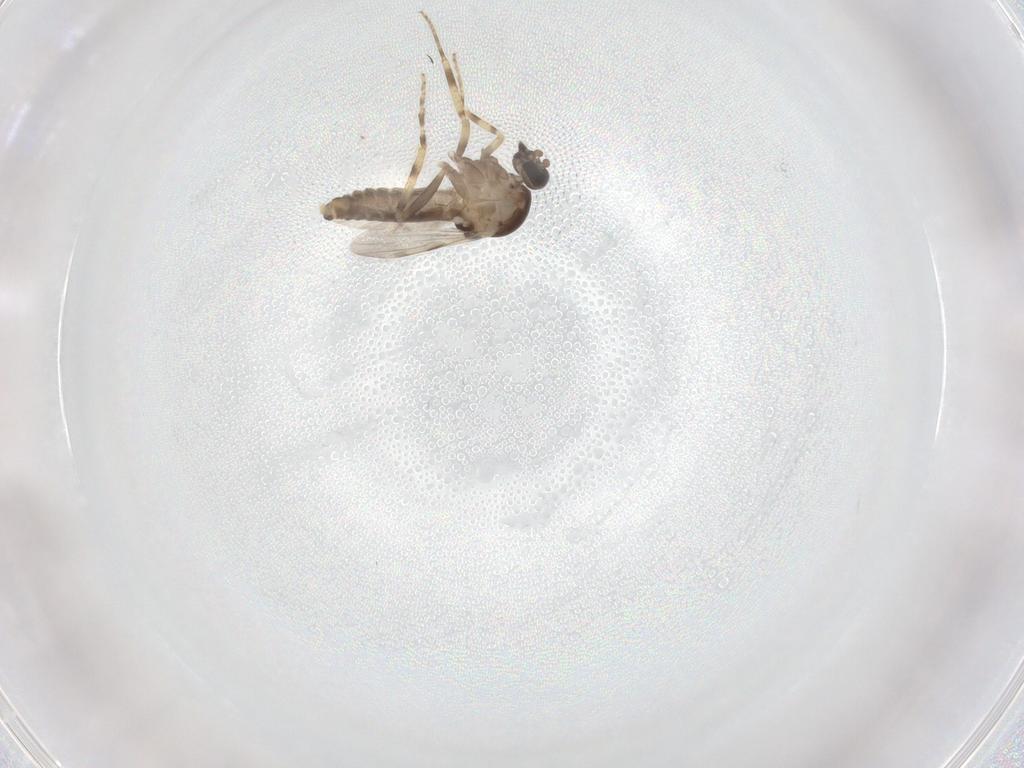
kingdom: Animalia
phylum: Arthropoda
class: Insecta
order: Diptera
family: Ceratopogonidae
